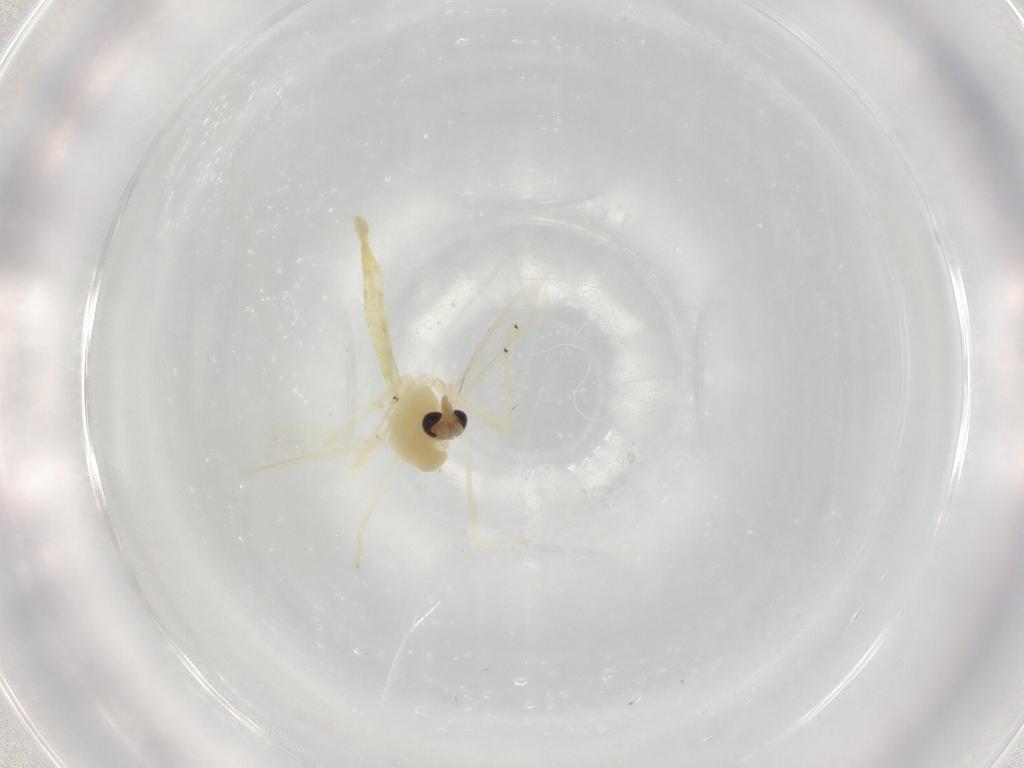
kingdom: Animalia
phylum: Arthropoda
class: Insecta
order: Diptera
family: Chironomidae
